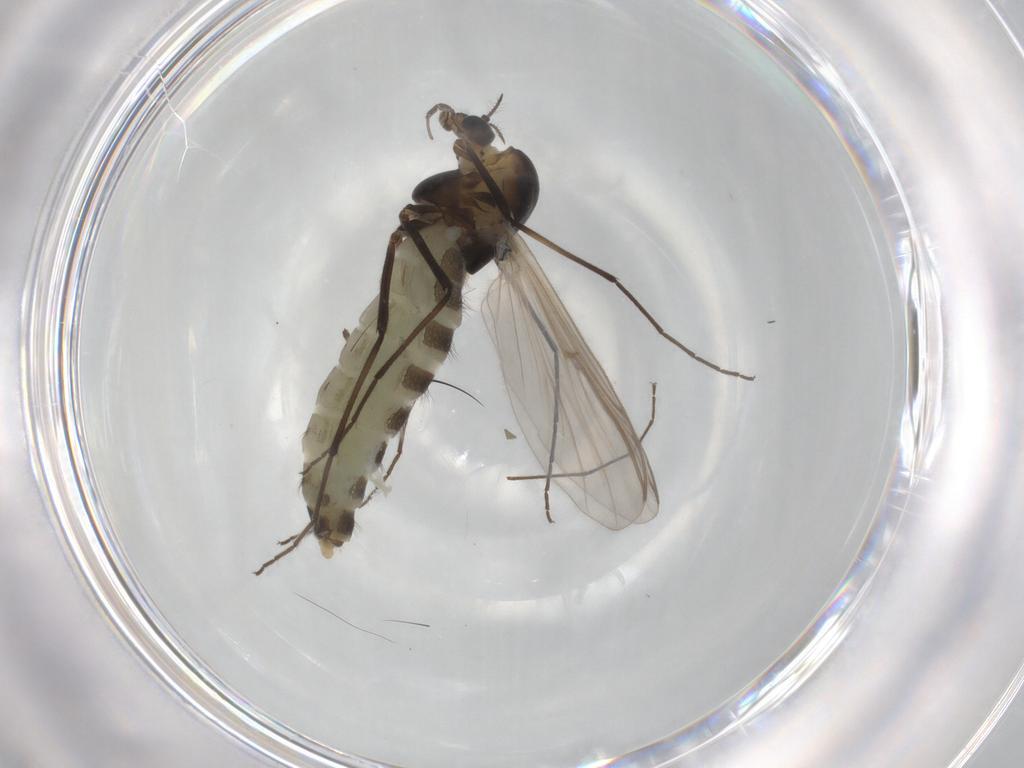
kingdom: Animalia
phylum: Arthropoda
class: Insecta
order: Diptera
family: Chironomidae
